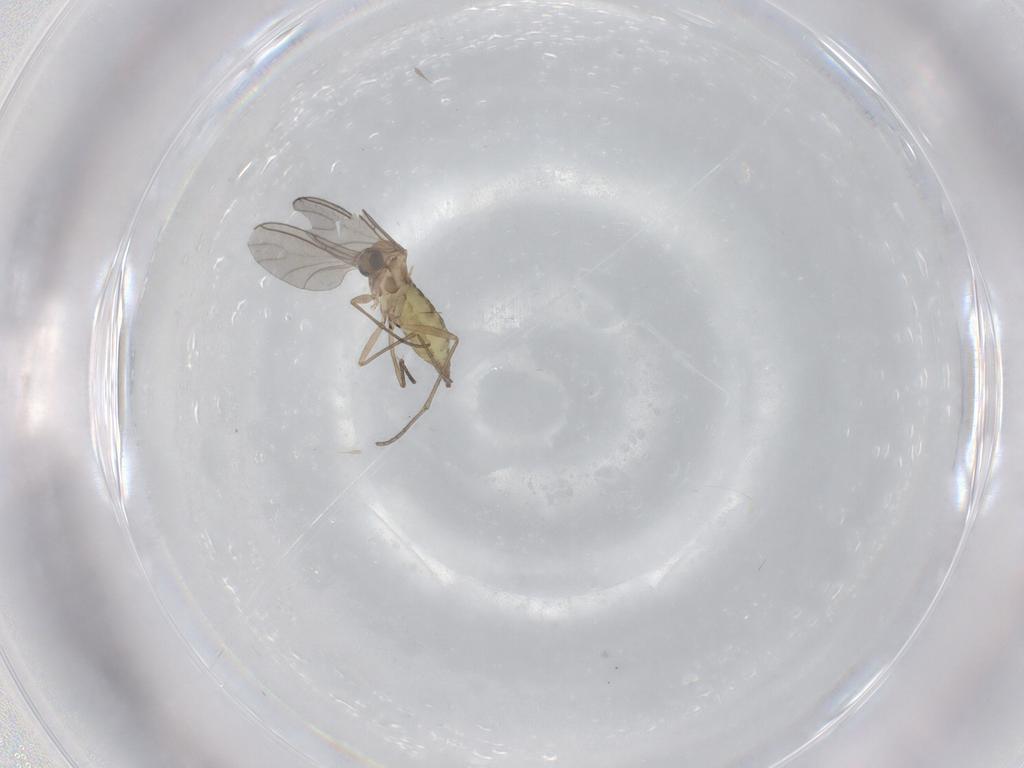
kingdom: Animalia
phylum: Arthropoda
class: Insecta
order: Diptera
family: Sciaridae
